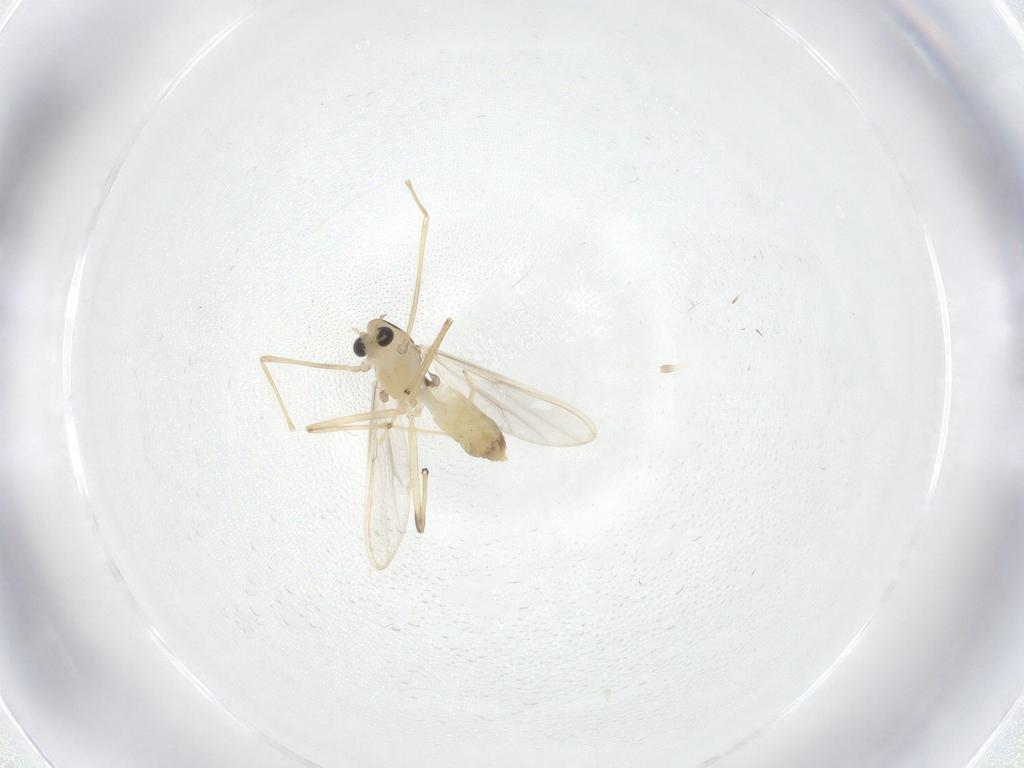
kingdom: Animalia
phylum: Arthropoda
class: Insecta
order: Diptera
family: Chironomidae
